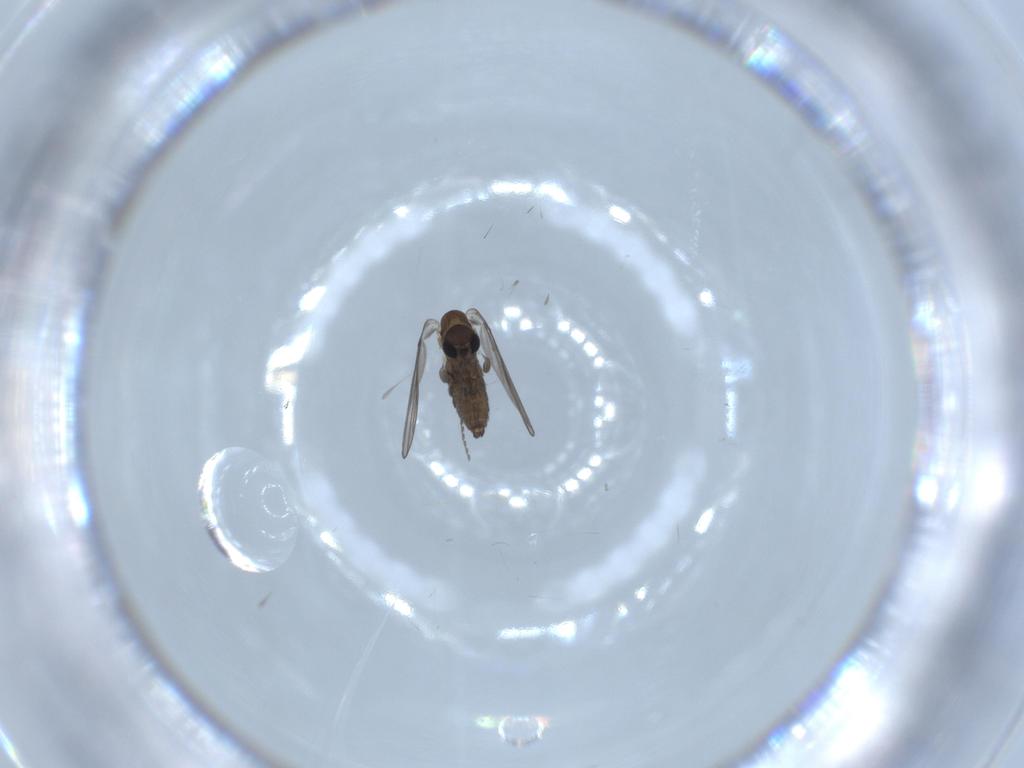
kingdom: Animalia
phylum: Arthropoda
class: Insecta
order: Diptera
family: Psychodidae
